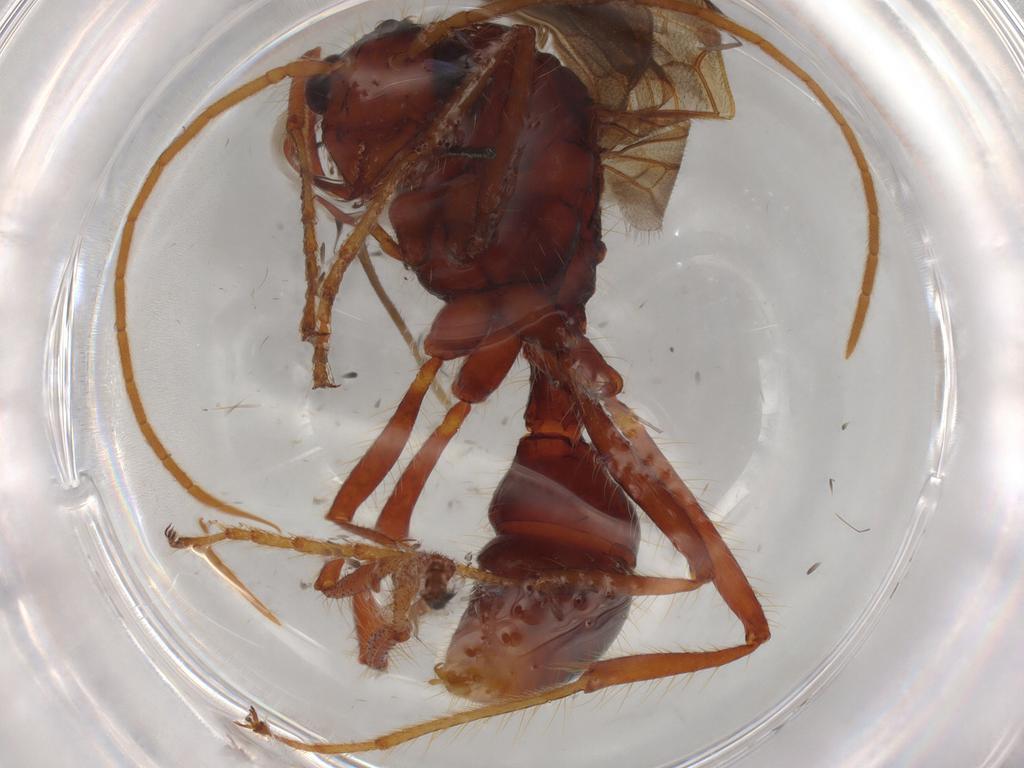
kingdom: Animalia
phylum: Arthropoda
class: Insecta
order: Hymenoptera
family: Formicidae
